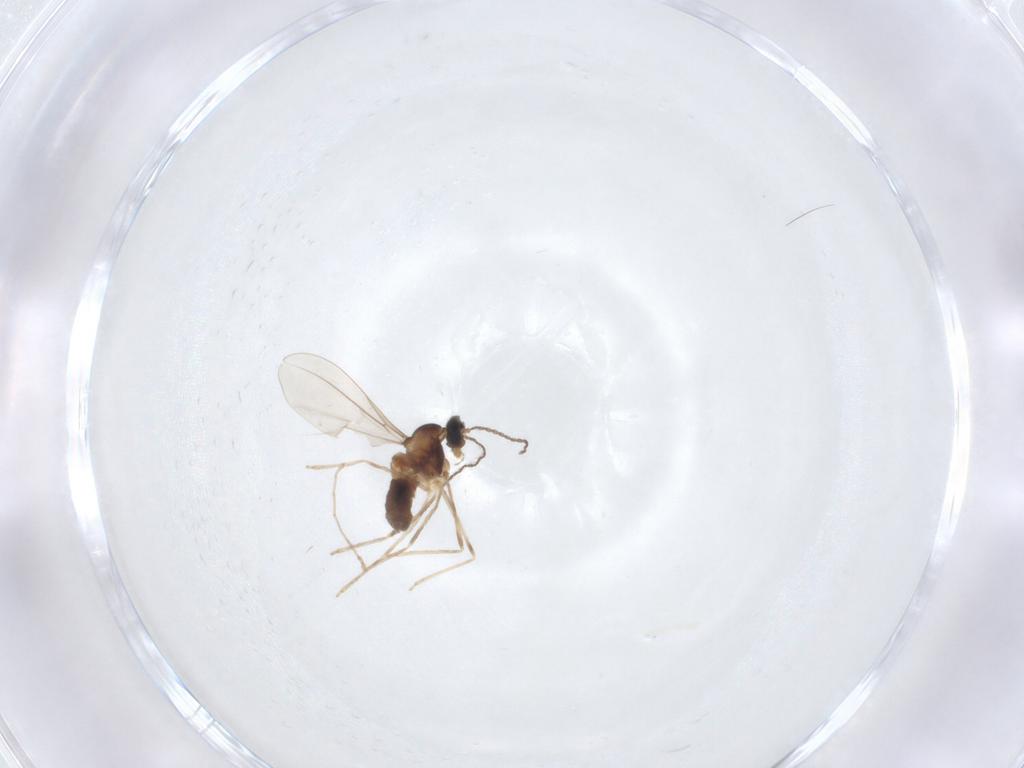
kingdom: Animalia
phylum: Arthropoda
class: Insecta
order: Diptera
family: Cecidomyiidae
